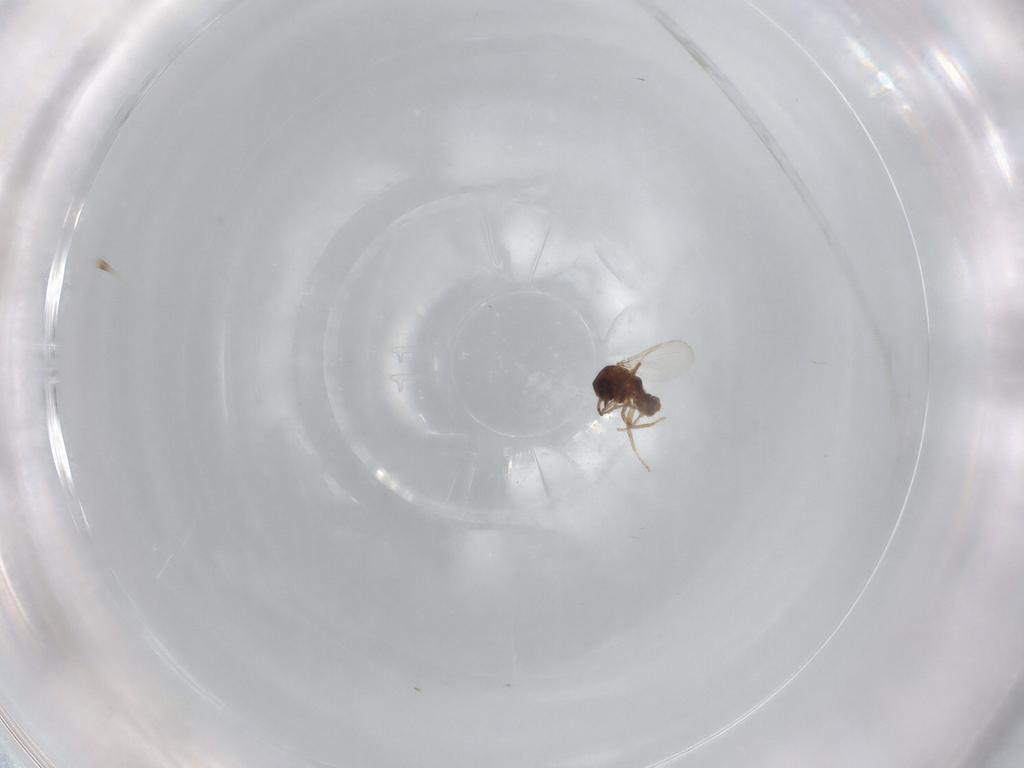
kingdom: Animalia
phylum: Arthropoda
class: Insecta
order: Diptera
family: Ceratopogonidae
